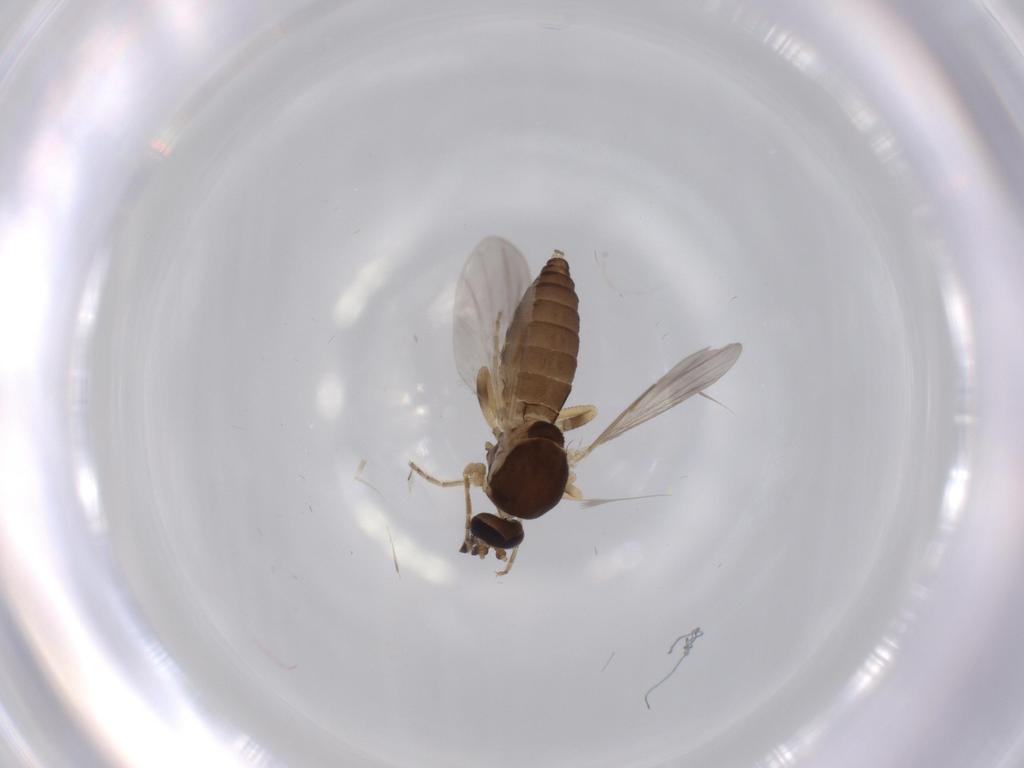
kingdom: Animalia
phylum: Arthropoda
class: Insecta
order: Diptera
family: Ceratopogonidae
